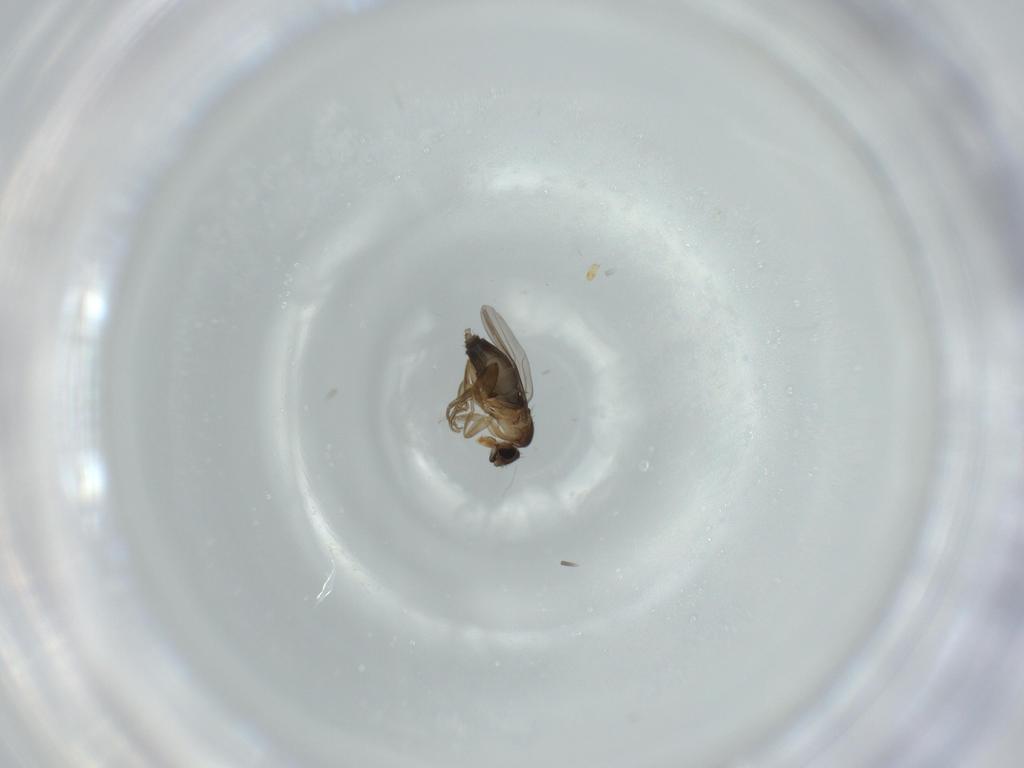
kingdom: Animalia
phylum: Arthropoda
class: Insecta
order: Diptera
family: Phoridae
